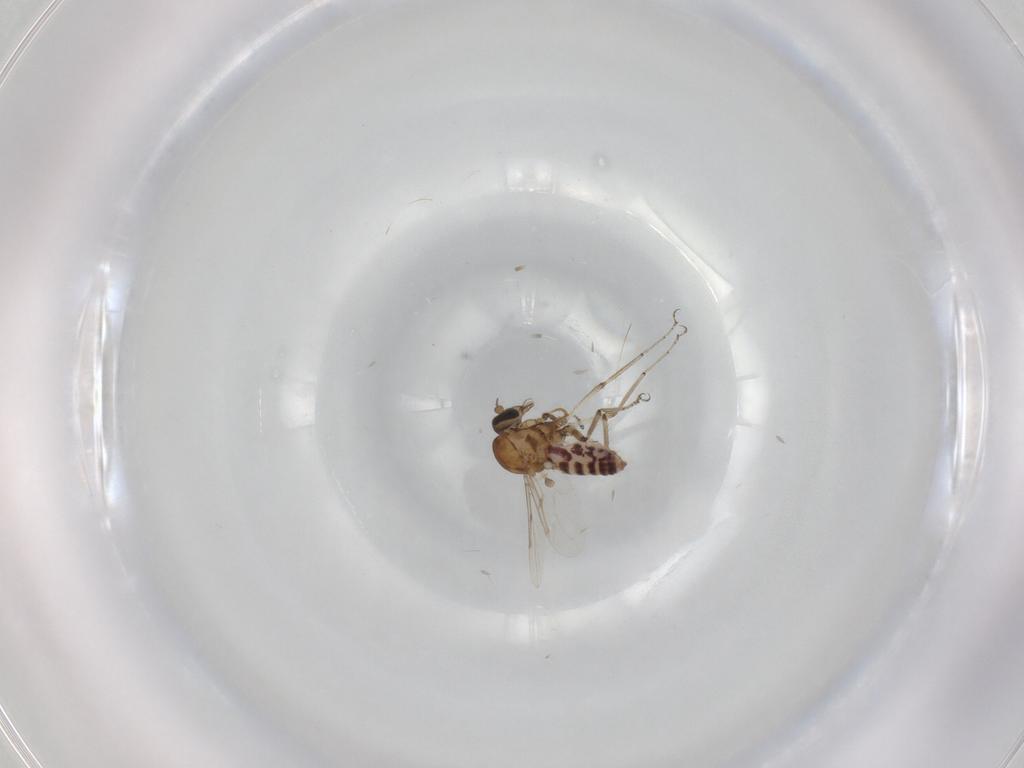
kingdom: Animalia
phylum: Arthropoda
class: Insecta
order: Diptera
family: Ceratopogonidae
